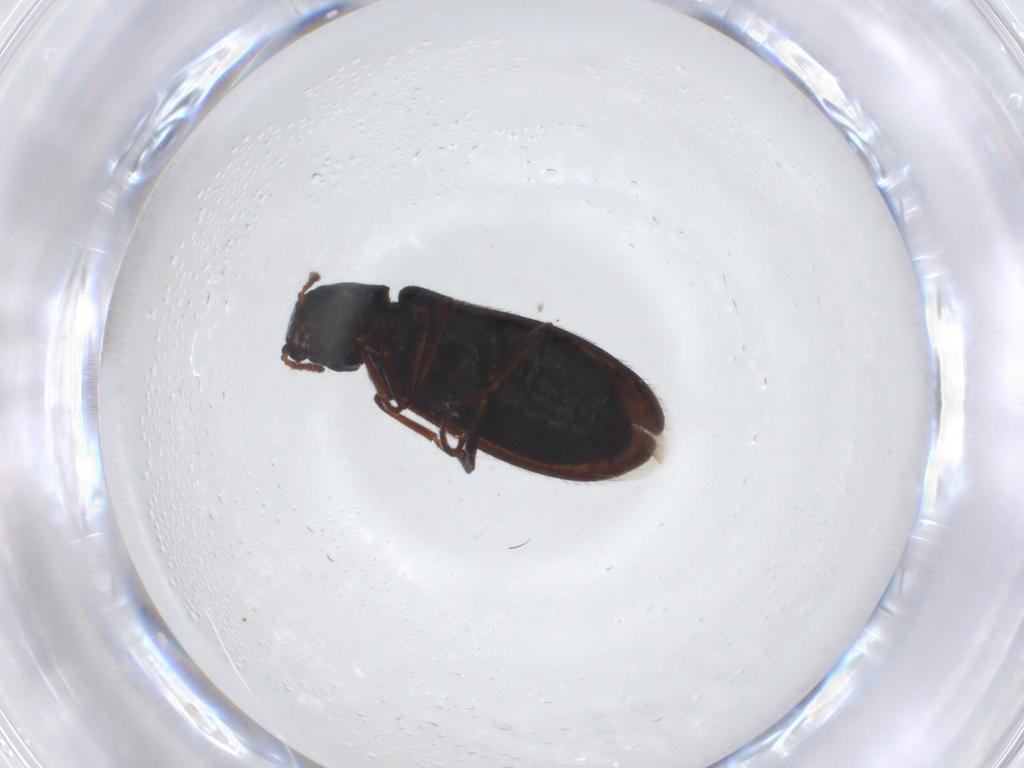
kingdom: Animalia
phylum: Arthropoda
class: Insecta
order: Coleoptera
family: Melyridae
